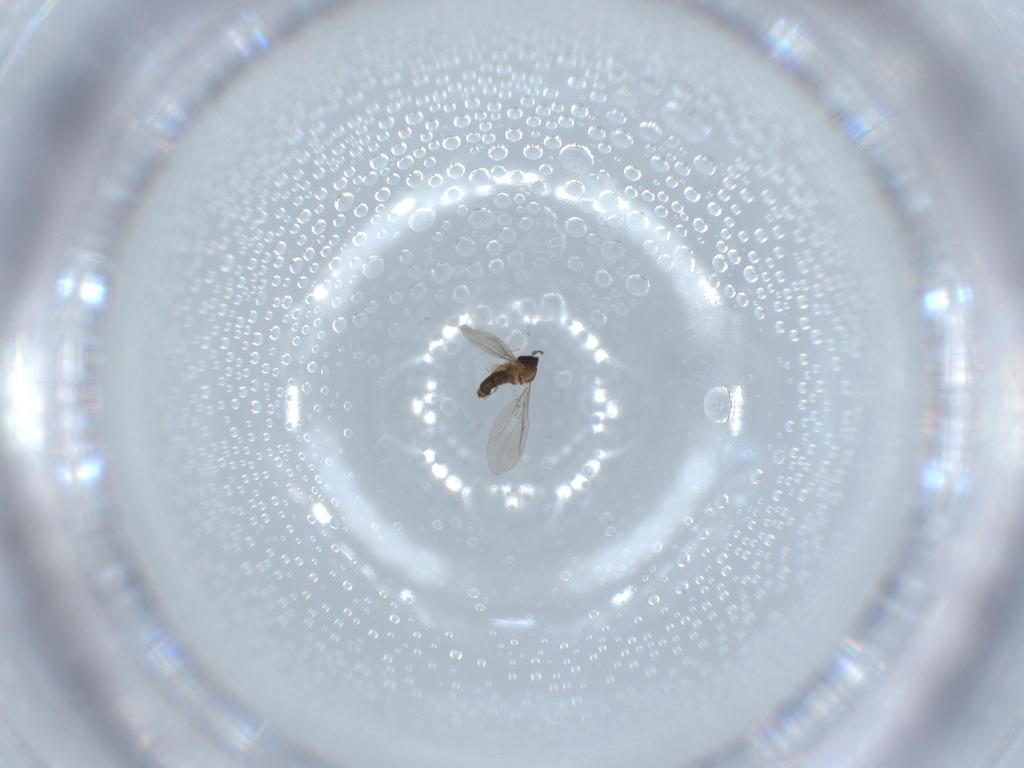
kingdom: Animalia
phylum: Arthropoda
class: Insecta
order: Diptera
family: Cecidomyiidae
